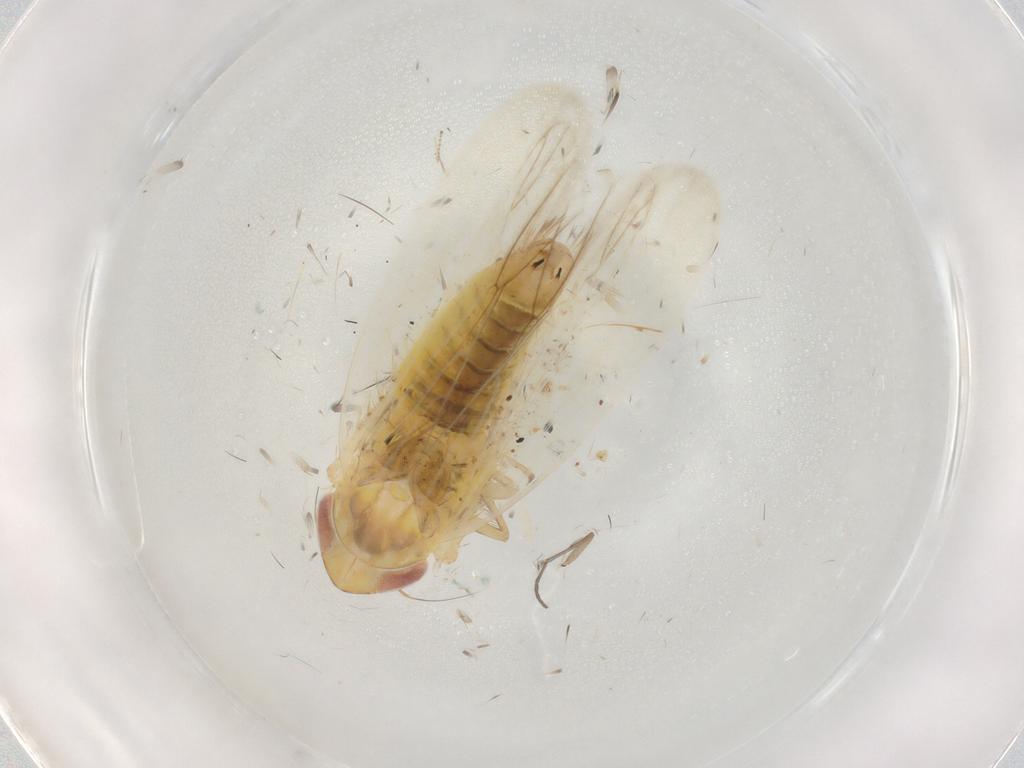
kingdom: Animalia
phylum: Arthropoda
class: Insecta
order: Hemiptera
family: Cicadellidae
